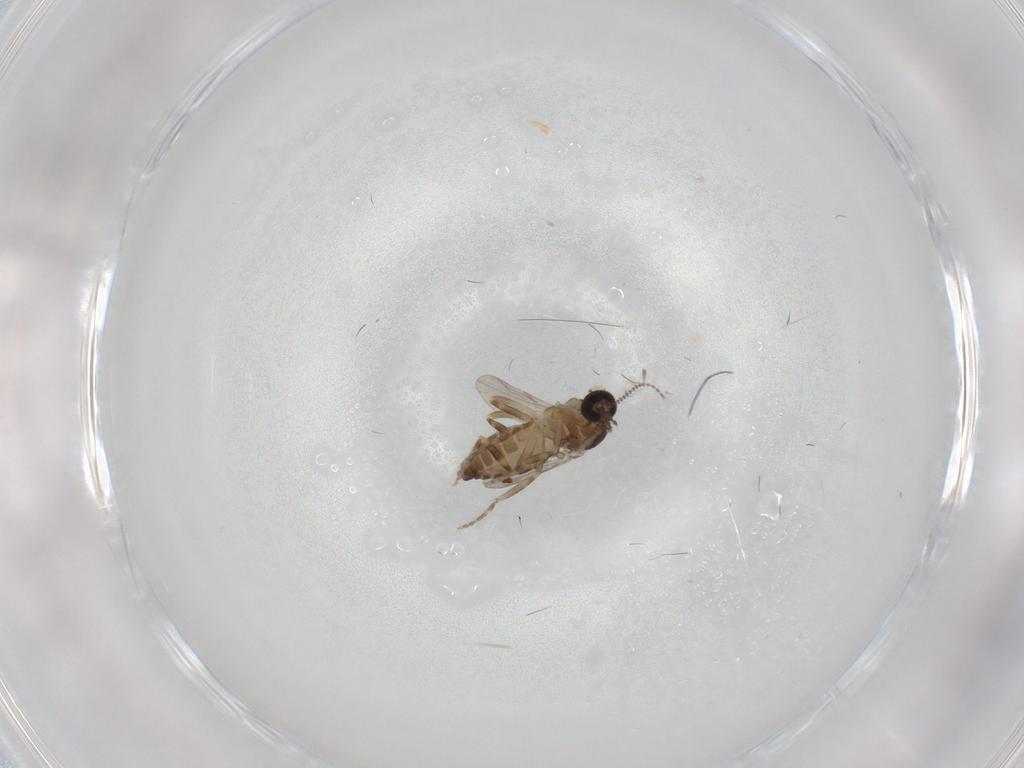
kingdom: Animalia
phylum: Arthropoda
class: Insecta
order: Diptera
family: Ceratopogonidae
